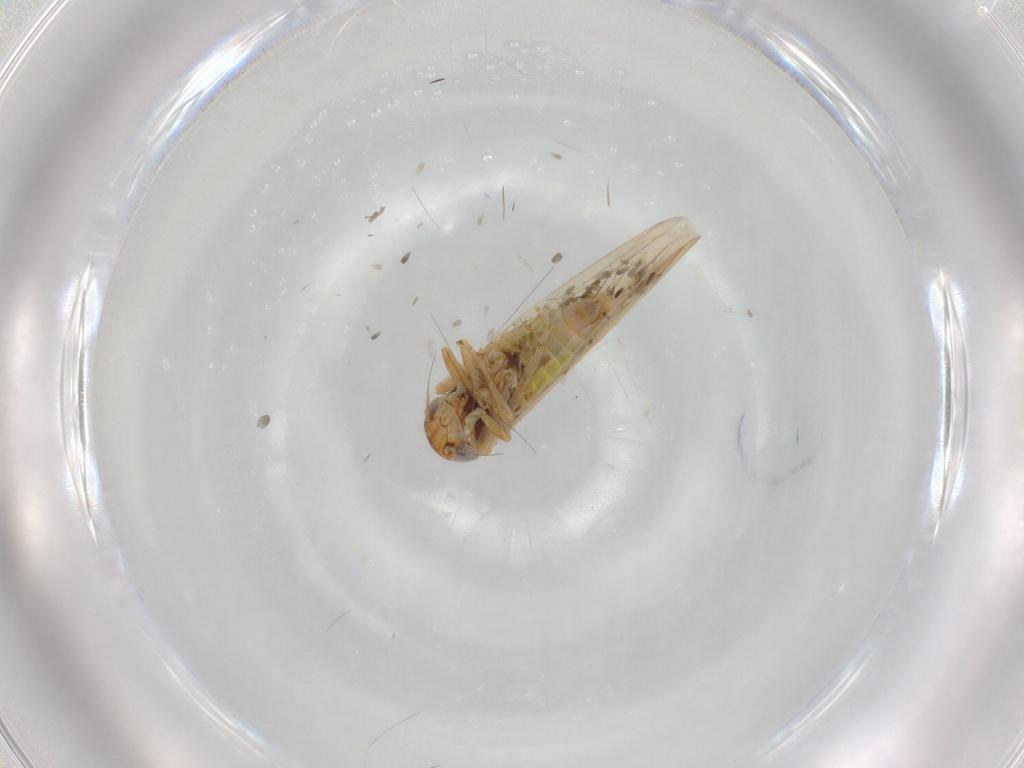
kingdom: Animalia
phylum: Arthropoda
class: Insecta
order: Hemiptera
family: Cicadellidae
